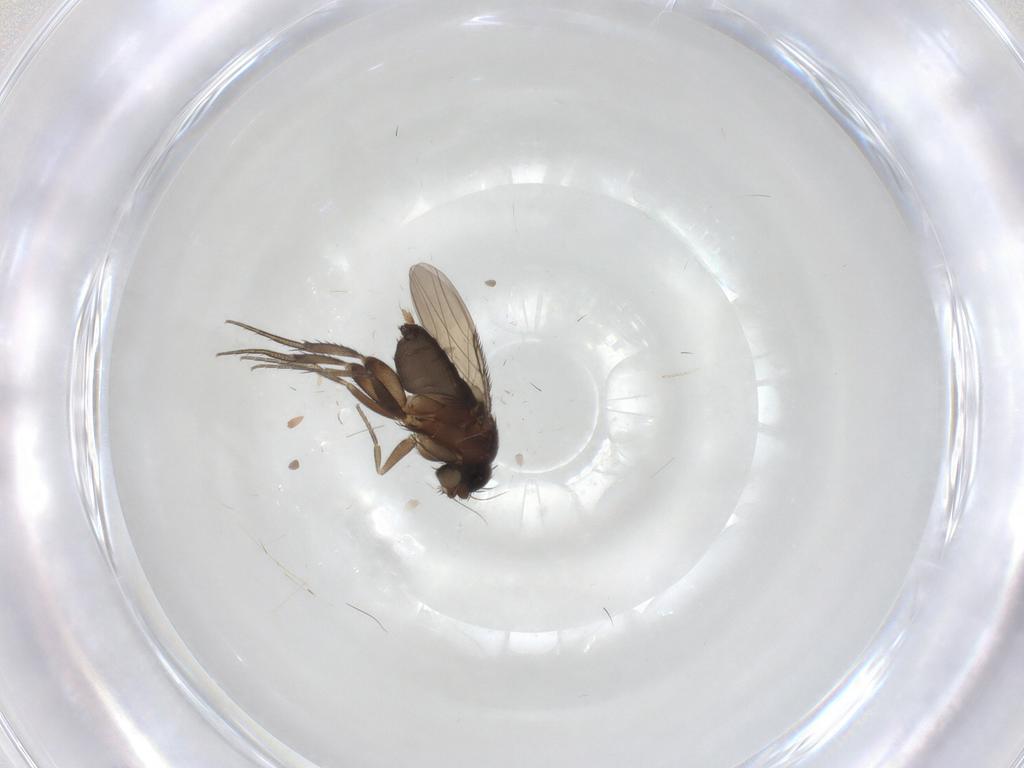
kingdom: Animalia
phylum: Arthropoda
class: Insecta
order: Diptera
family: Phoridae
